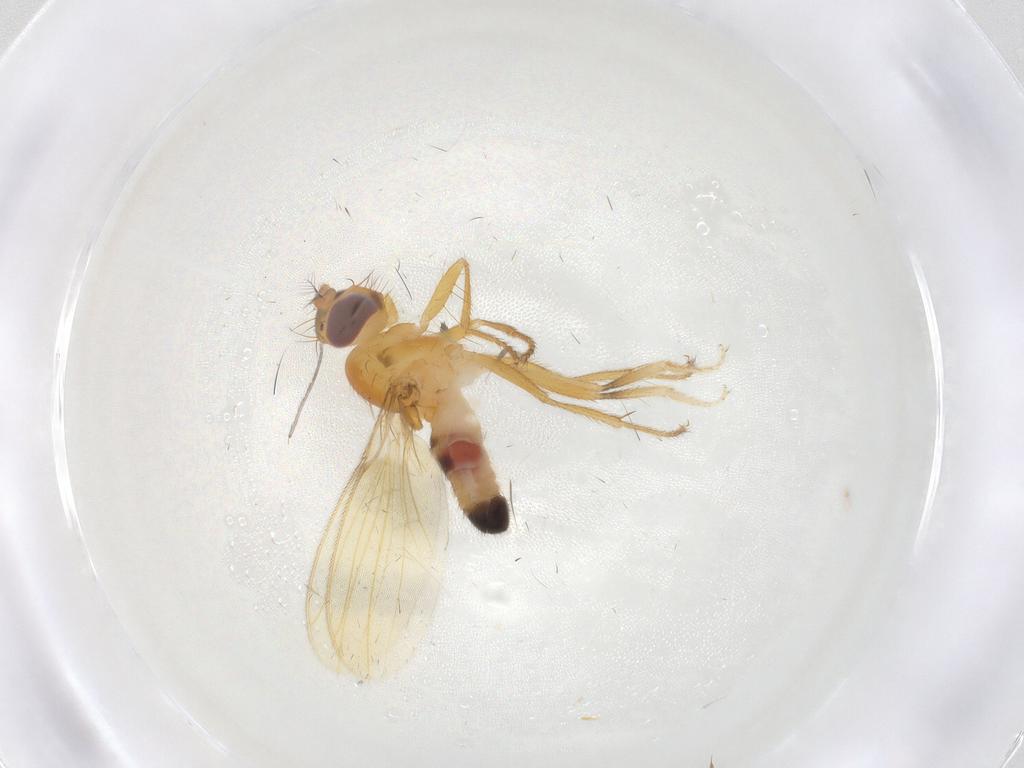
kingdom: Animalia
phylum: Arthropoda
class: Insecta
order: Diptera
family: Periscelididae
